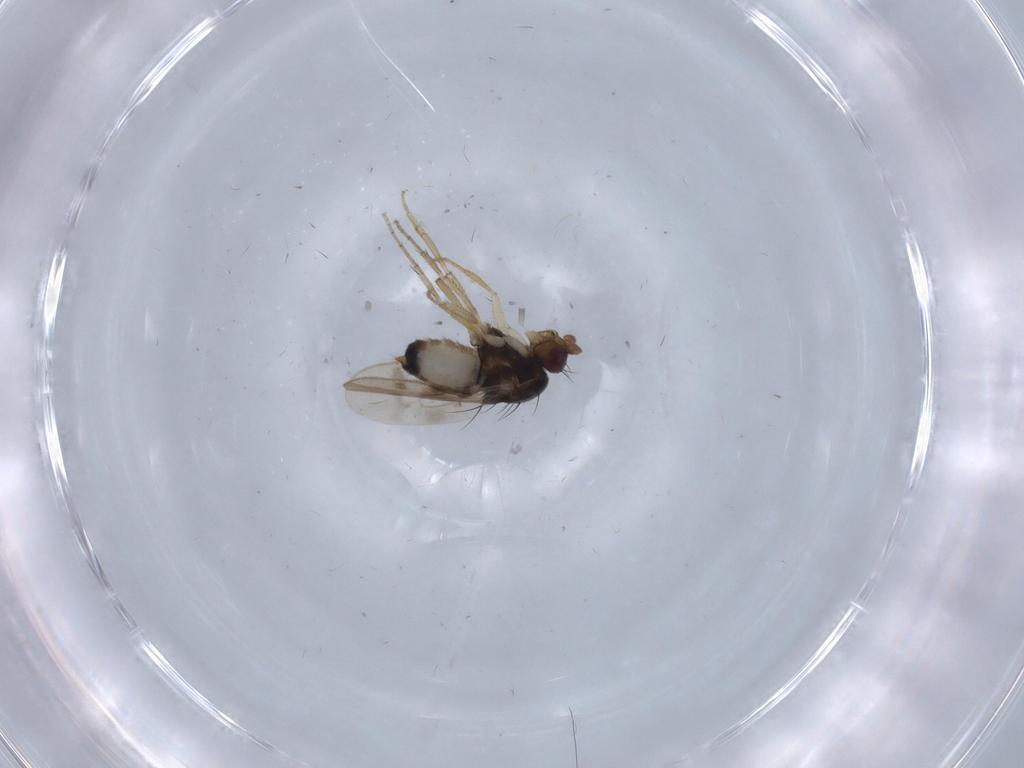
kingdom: Animalia
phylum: Arthropoda
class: Insecta
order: Diptera
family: Sphaeroceridae
